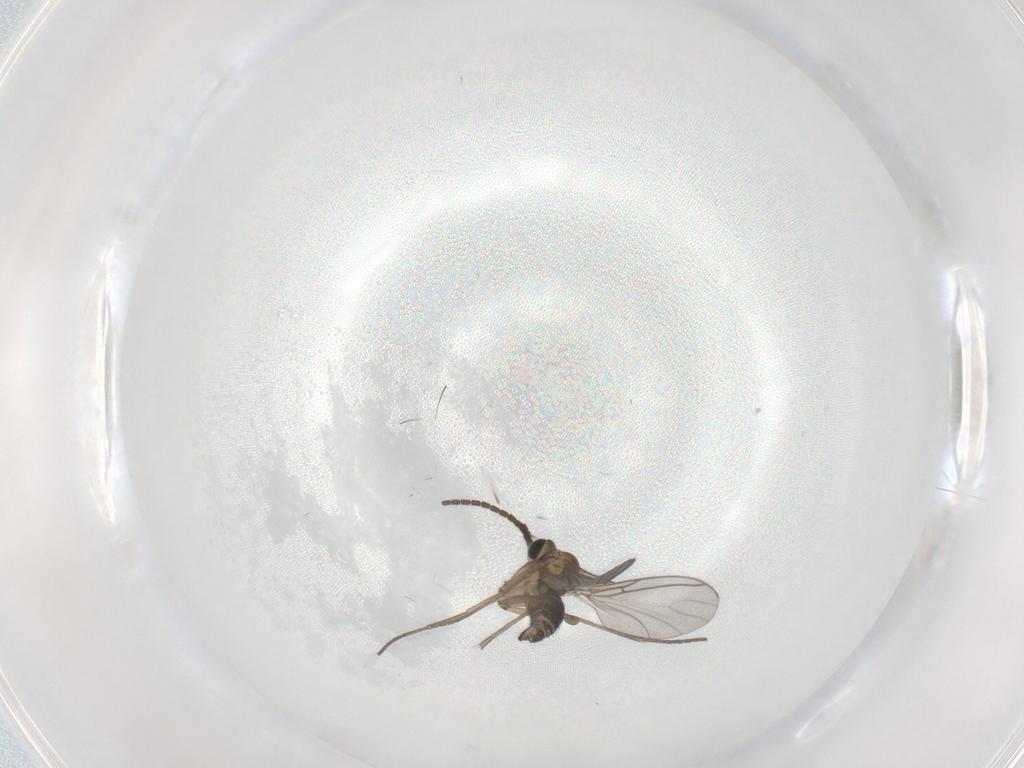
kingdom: Animalia
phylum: Arthropoda
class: Insecta
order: Diptera
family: Sciaridae
